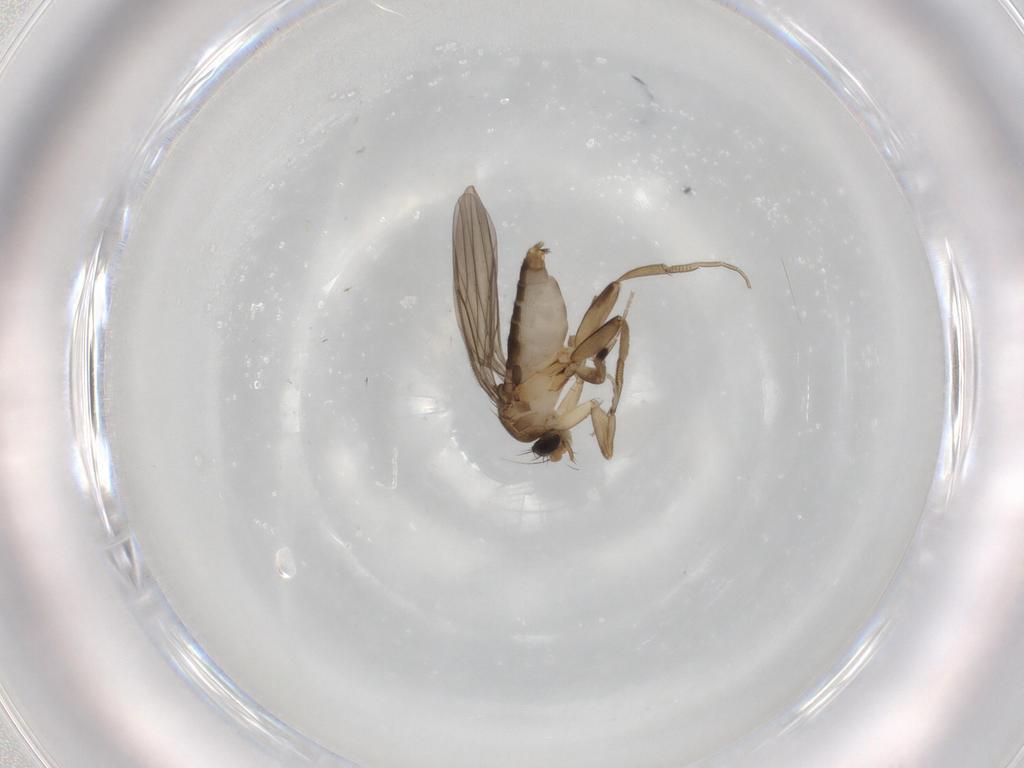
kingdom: Animalia
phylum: Arthropoda
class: Insecta
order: Diptera
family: Phoridae
